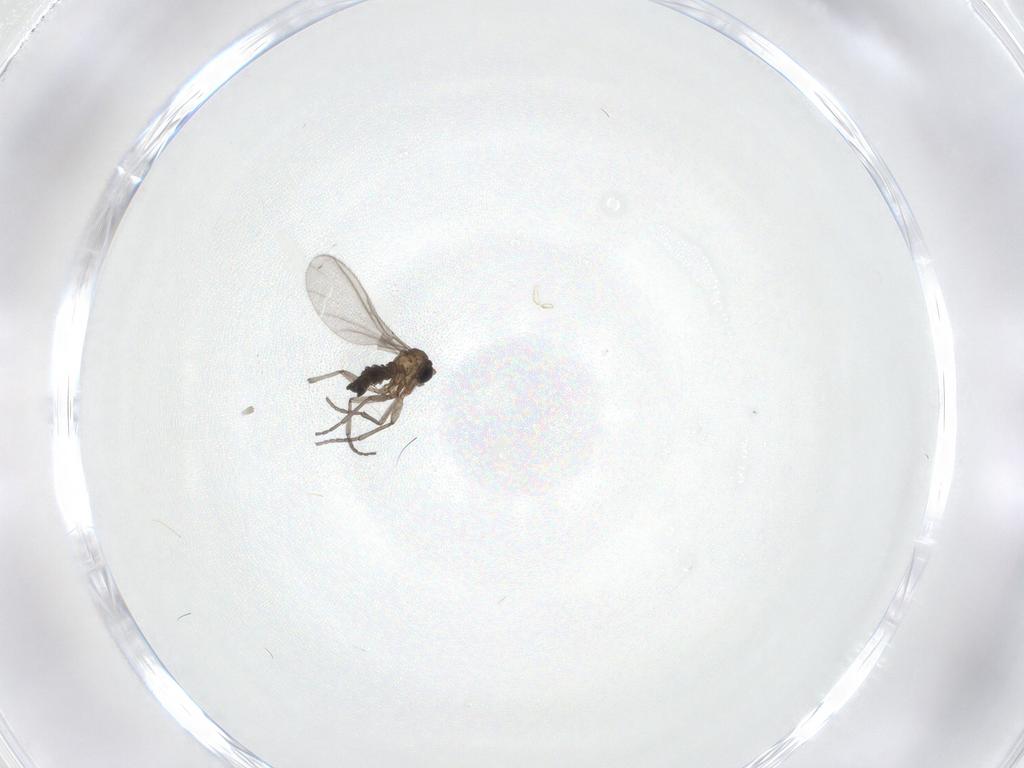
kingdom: Animalia
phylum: Arthropoda
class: Insecta
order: Diptera
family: Sciaridae
